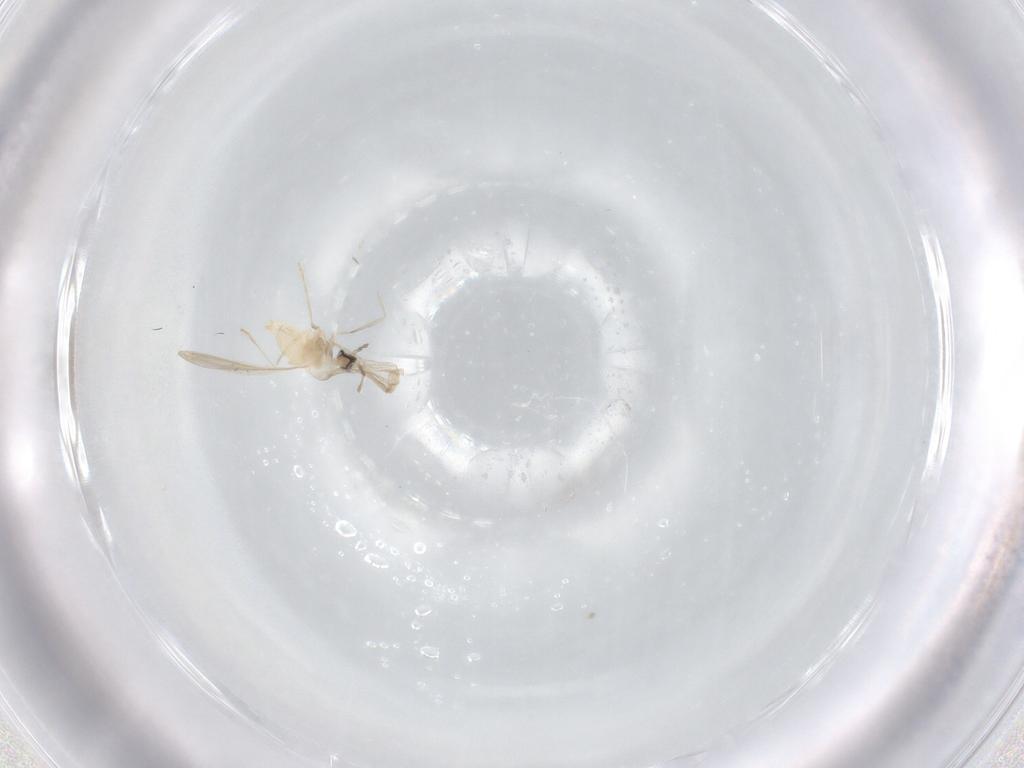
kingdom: Animalia
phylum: Arthropoda
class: Insecta
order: Diptera
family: Cecidomyiidae
